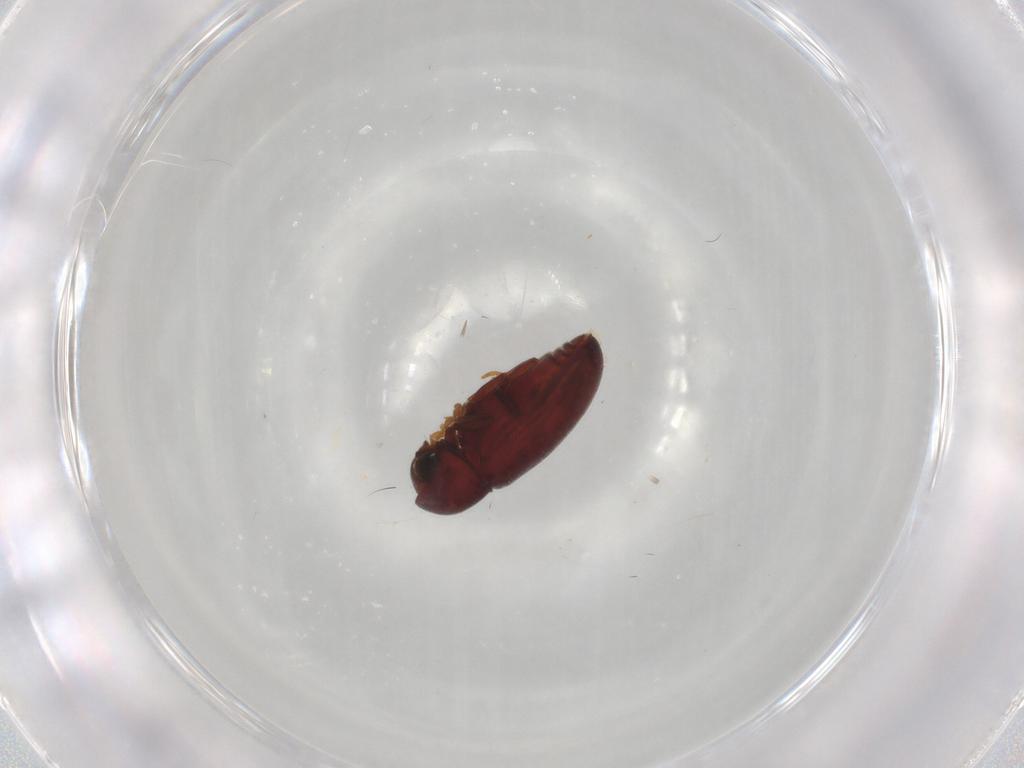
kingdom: Animalia
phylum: Arthropoda
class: Insecta
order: Coleoptera
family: Ptinidae
